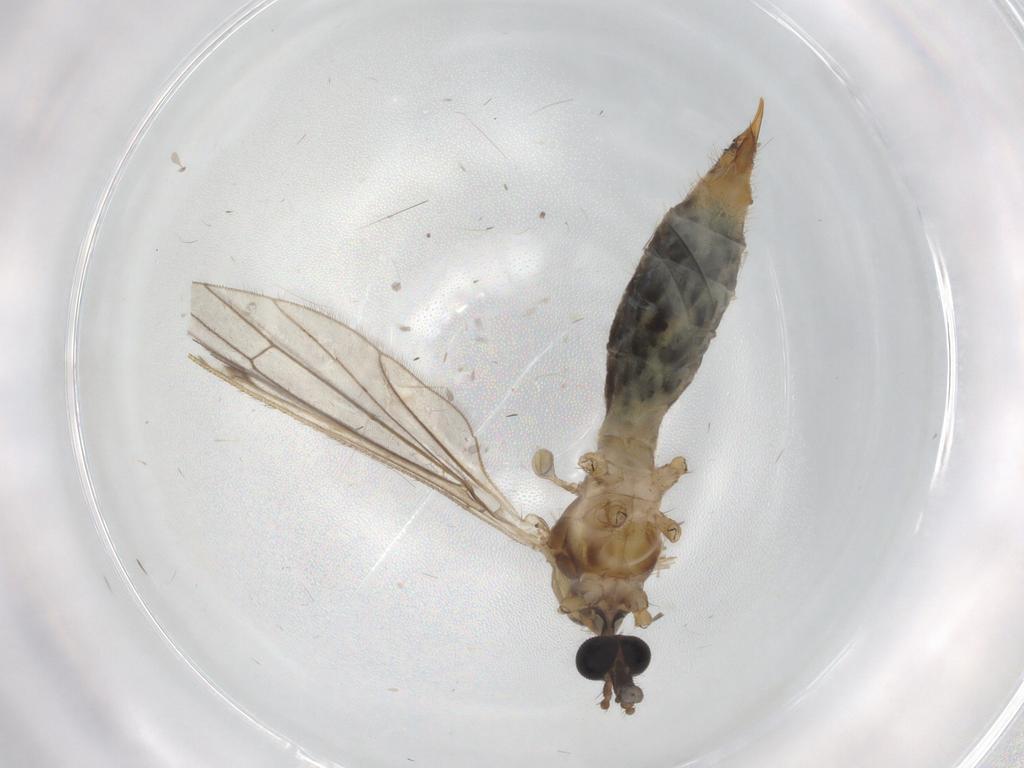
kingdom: Animalia
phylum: Arthropoda
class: Insecta
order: Diptera
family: Limoniidae
